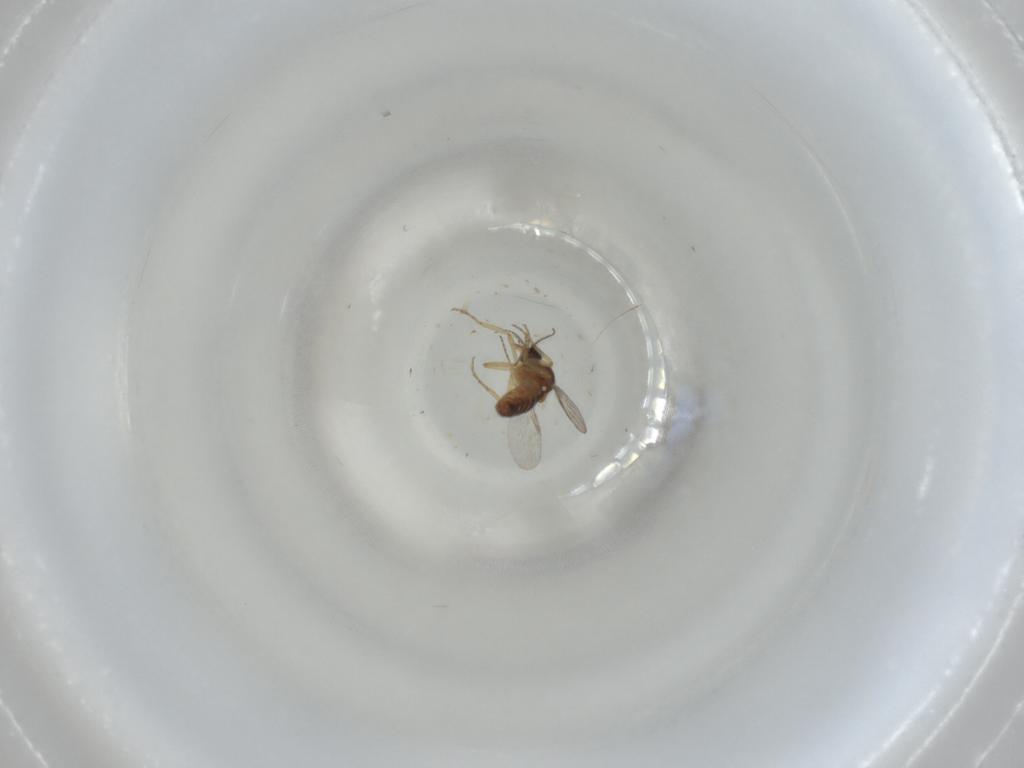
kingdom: Animalia
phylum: Arthropoda
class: Insecta
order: Diptera
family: Ceratopogonidae
